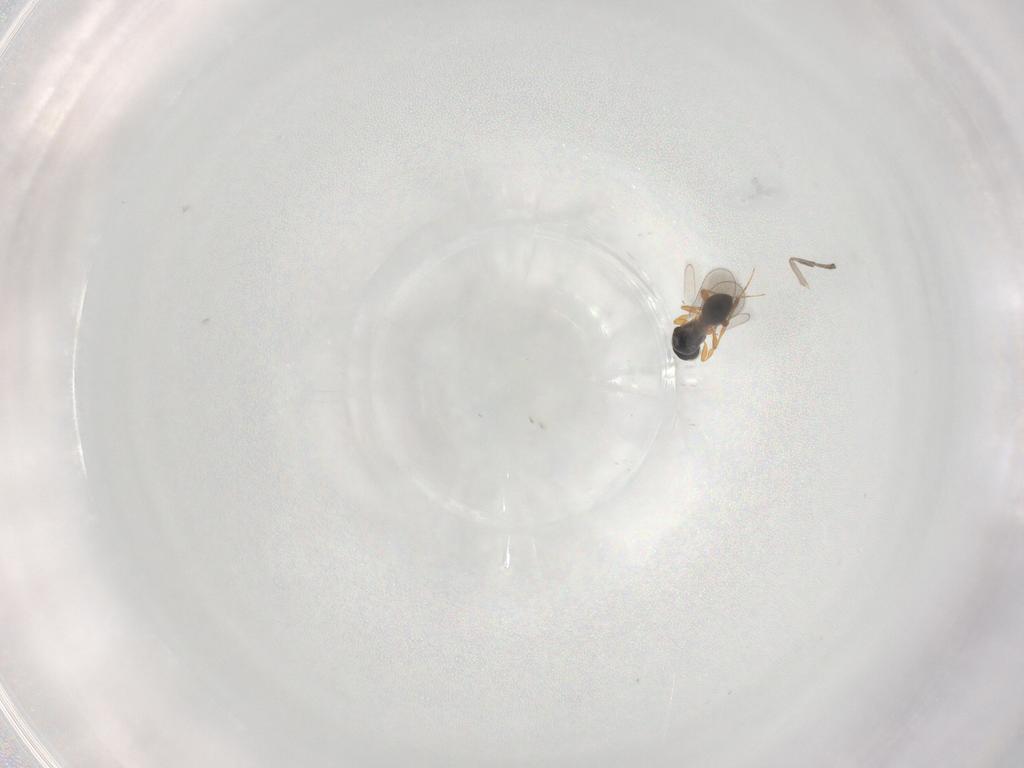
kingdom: Animalia
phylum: Arthropoda
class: Insecta
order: Hymenoptera
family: Platygastridae
